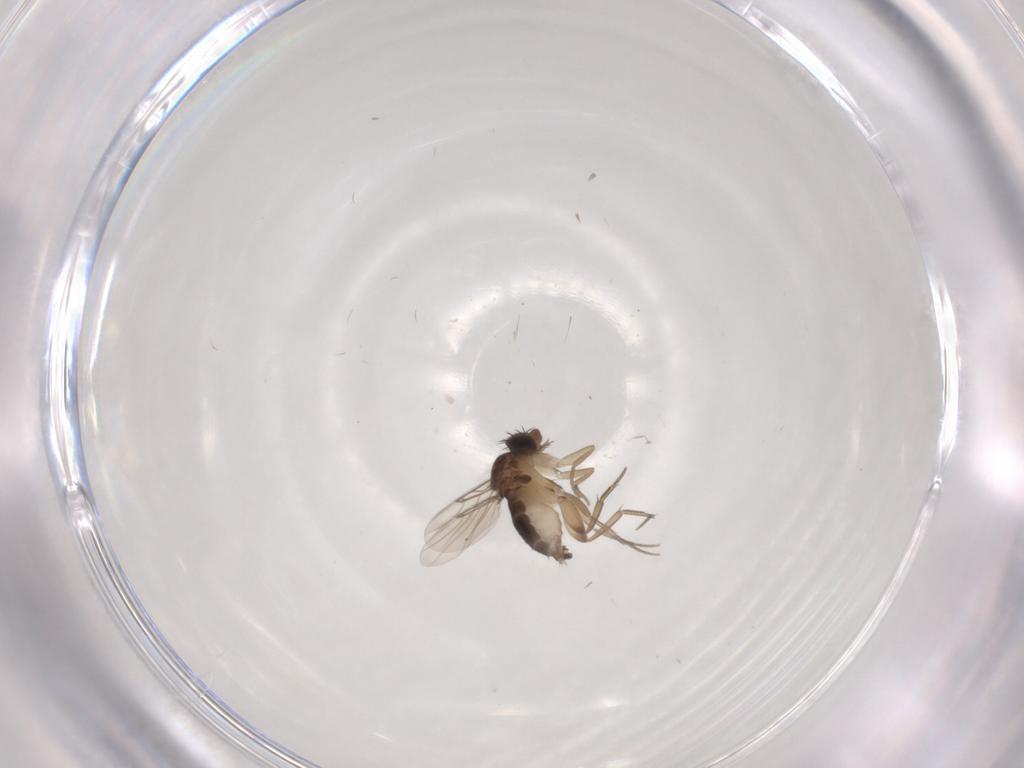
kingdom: Animalia
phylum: Arthropoda
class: Insecta
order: Diptera
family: Phoridae
